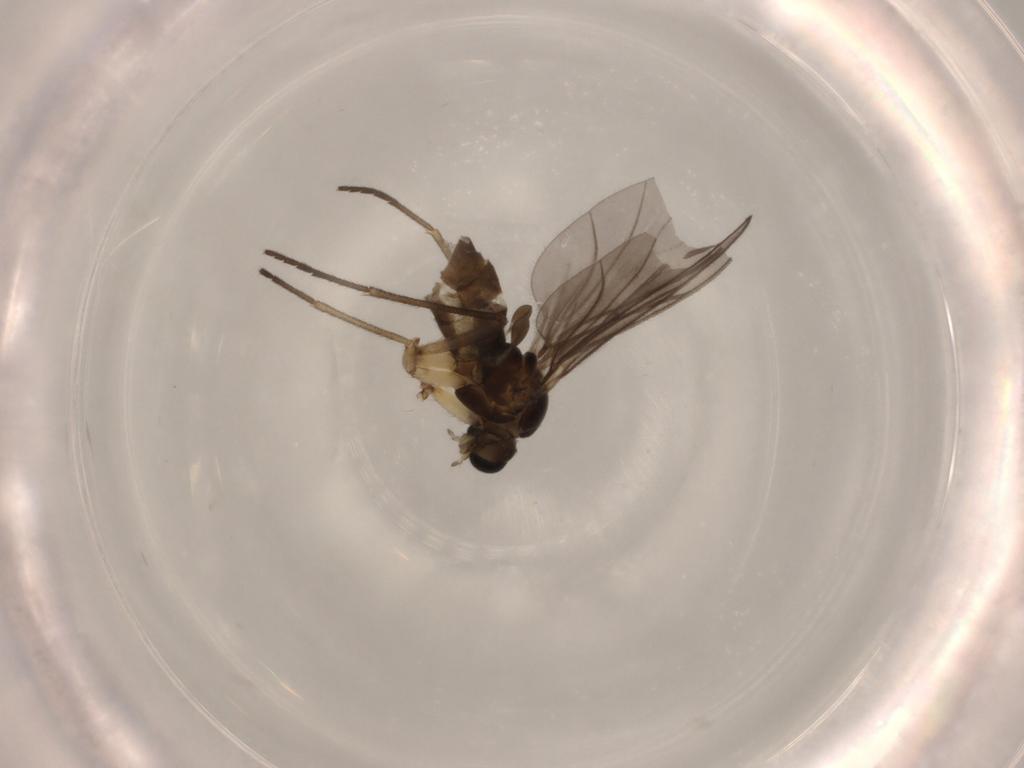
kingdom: Animalia
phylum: Arthropoda
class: Insecta
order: Diptera
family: Sciaridae
